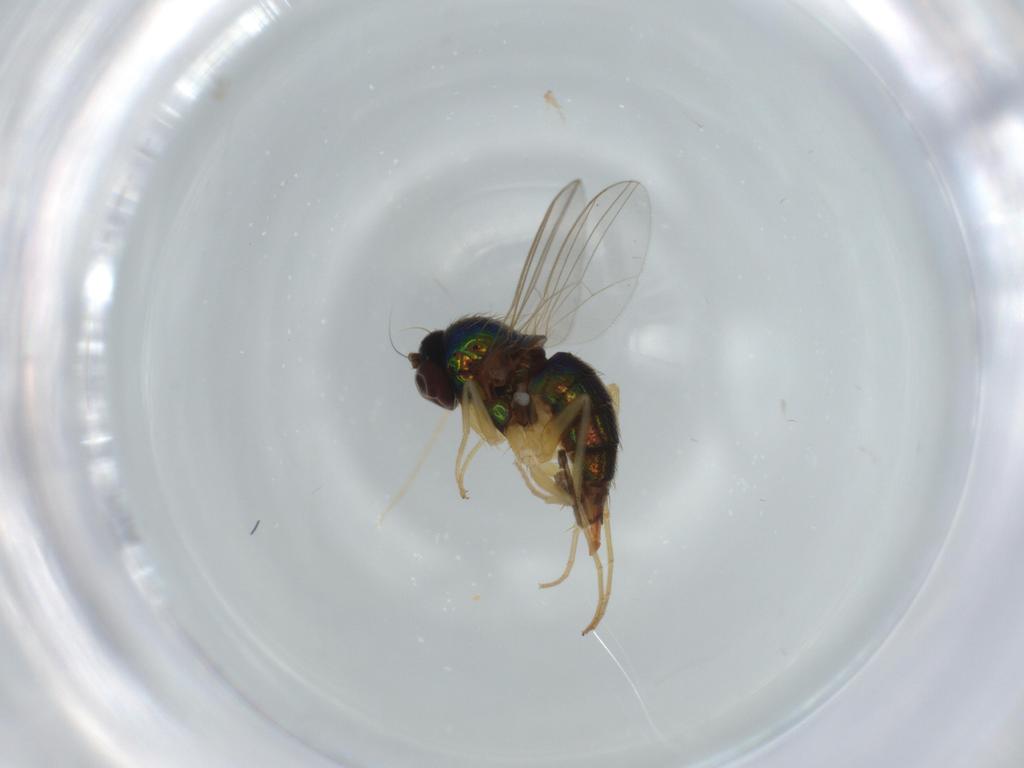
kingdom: Animalia
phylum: Arthropoda
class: Insecta
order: Diptera
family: Dolichopodidae
